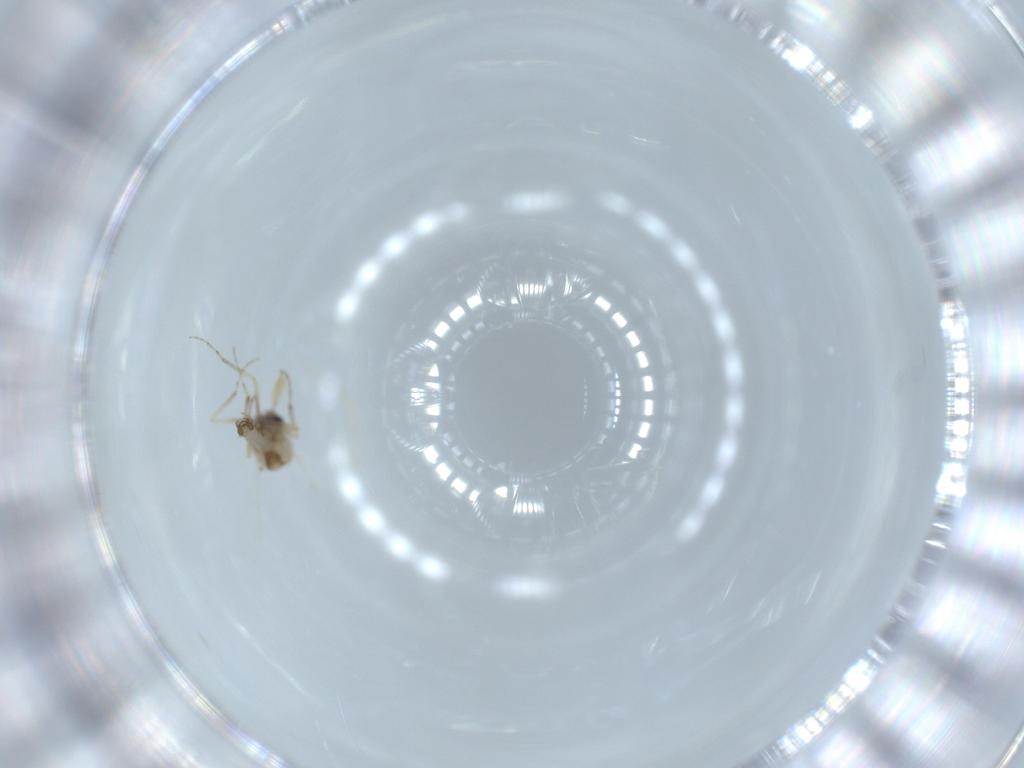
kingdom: Animalia
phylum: Arthropoda
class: Insecta
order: Diptera
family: Ceratopogonidae
